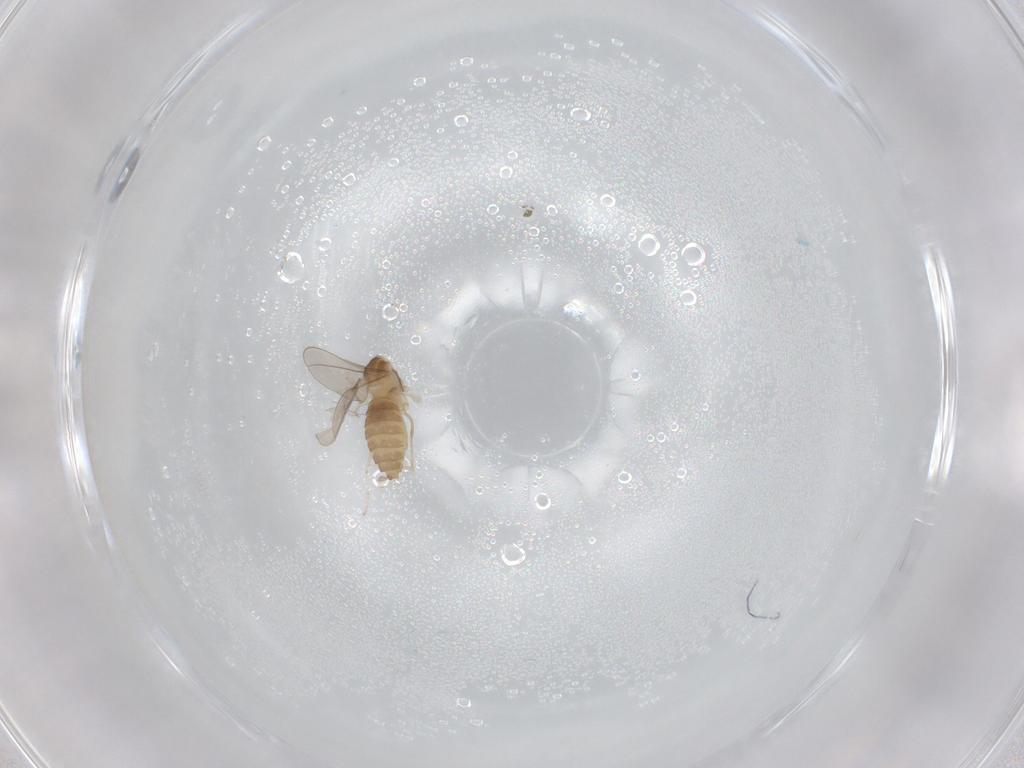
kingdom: Animalia
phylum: Arthropoda
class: Insecta
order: Diptera
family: Cecidomyiidae
